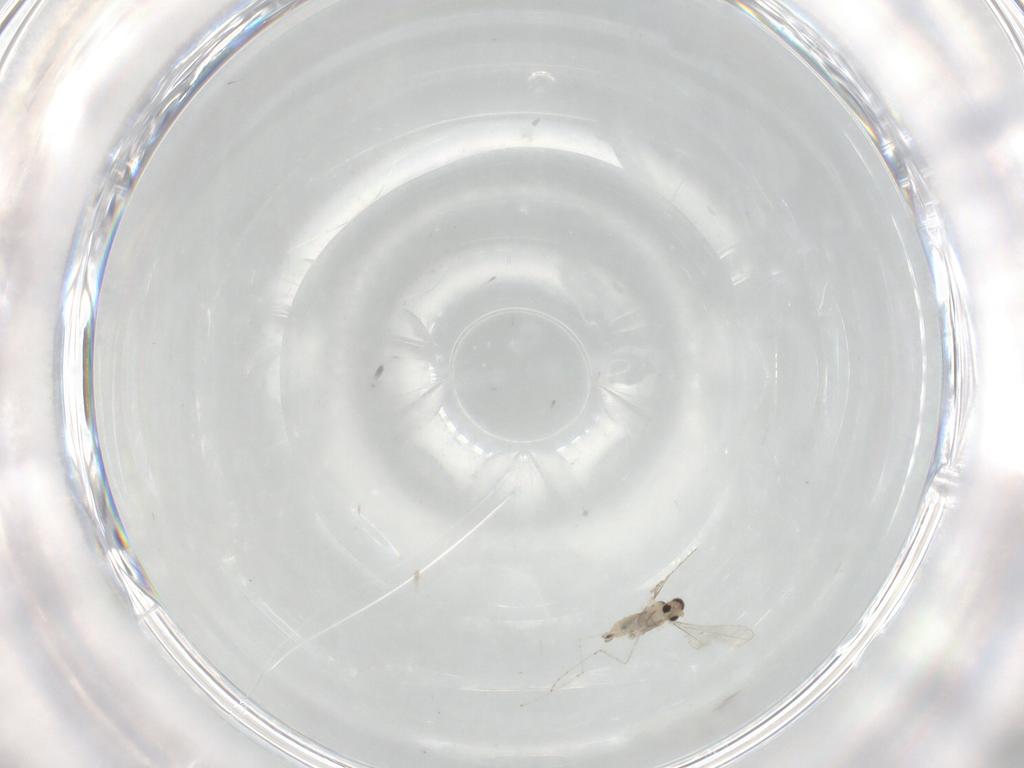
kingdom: Animalia
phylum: Arthropoda
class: Insecta
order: Diptera
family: Cecidomyiidae
